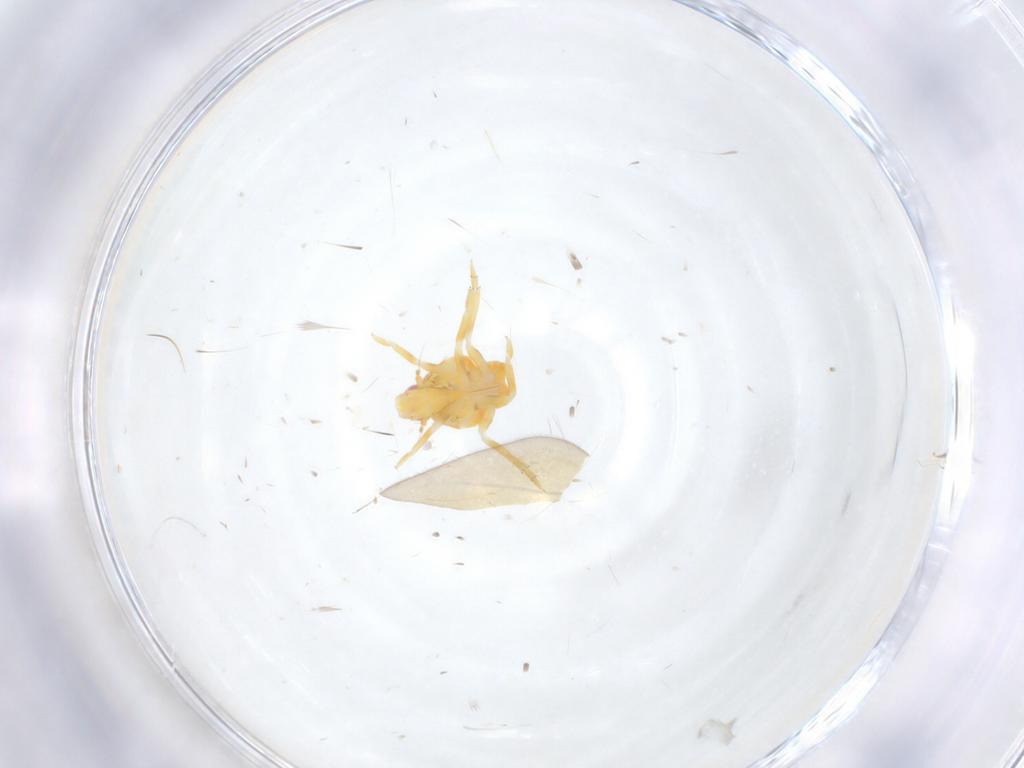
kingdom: Animalia
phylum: Arthropoda
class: Insecta
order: Hemiptera
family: Flatidae
